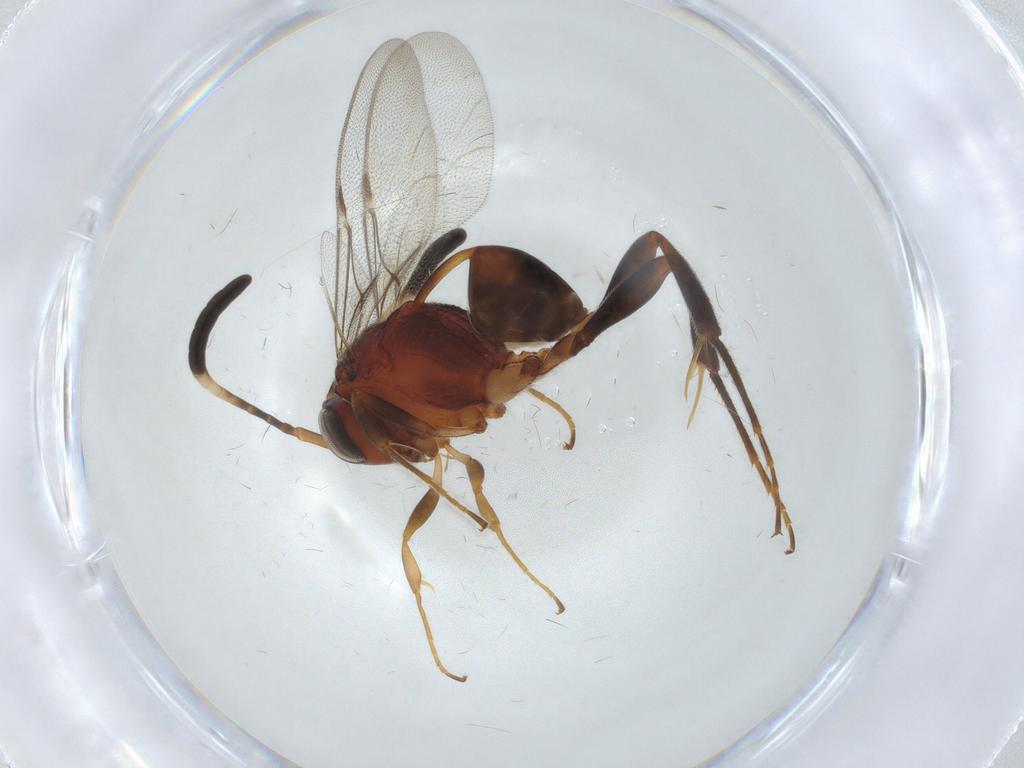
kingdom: Animalia
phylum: Arthropoda
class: Insecta
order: Hymenoptera
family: Evaniidae
